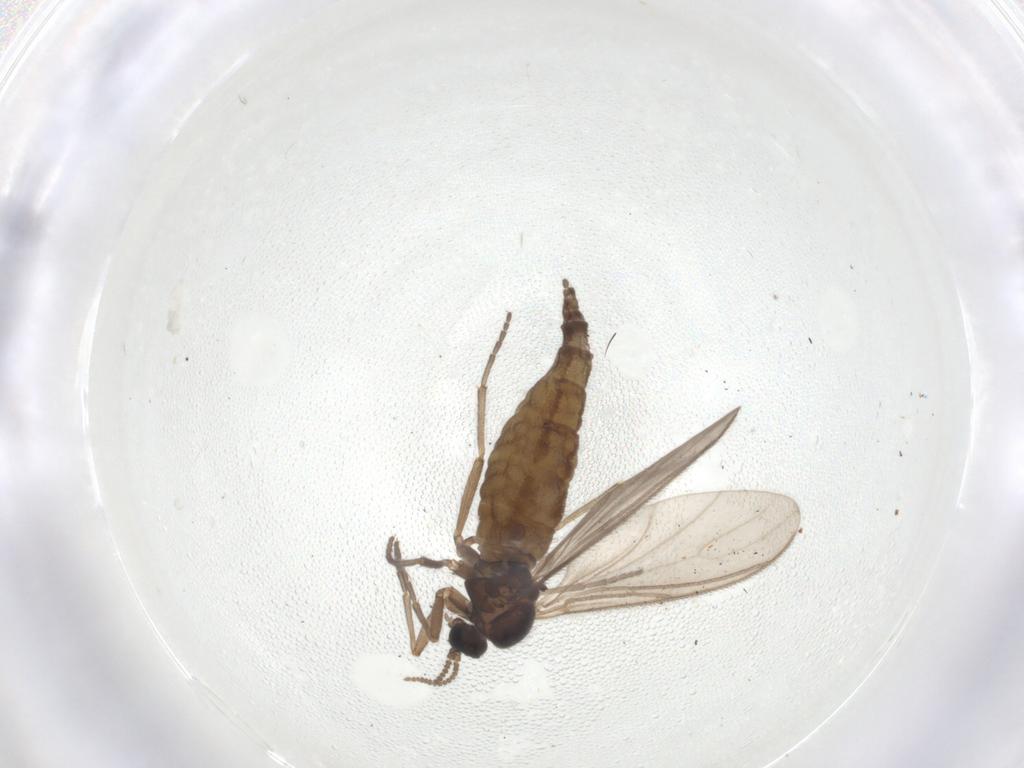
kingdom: Animalia
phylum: Arthropoda
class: Insecta
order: Diptera
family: Sciaridae
